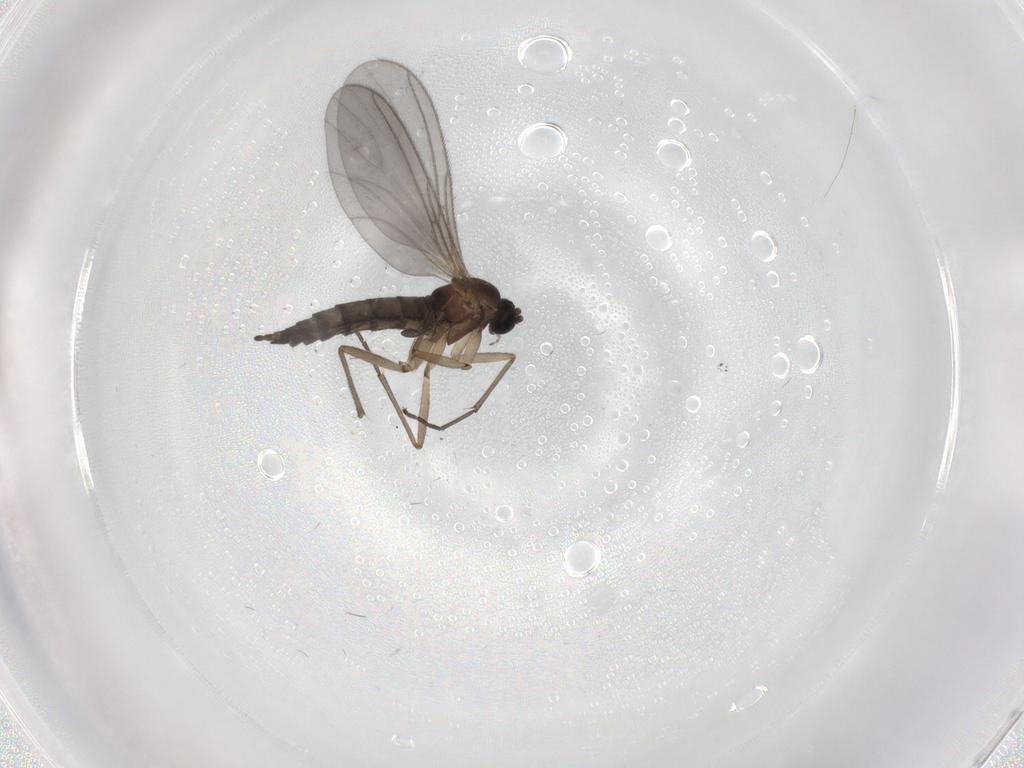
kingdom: Animalia
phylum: Arthropoda
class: Insecta
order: Diptera
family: Sciaridae
